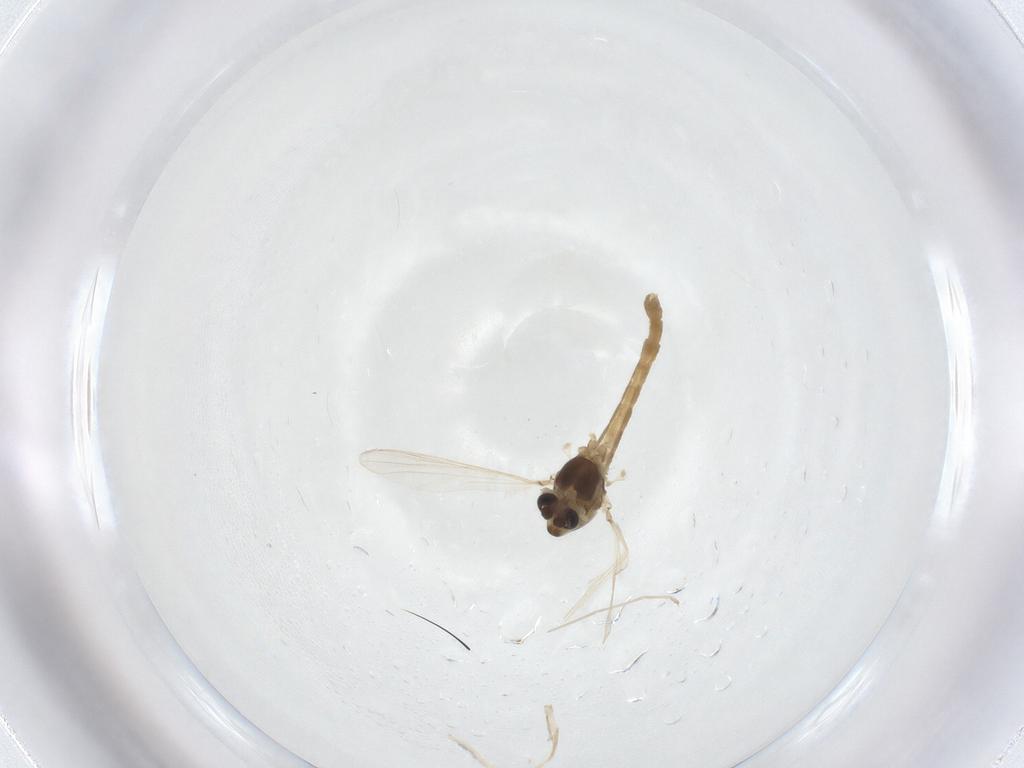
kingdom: Animalia
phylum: Arthropoda
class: Insecta
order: Diptera
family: Chironomidae
